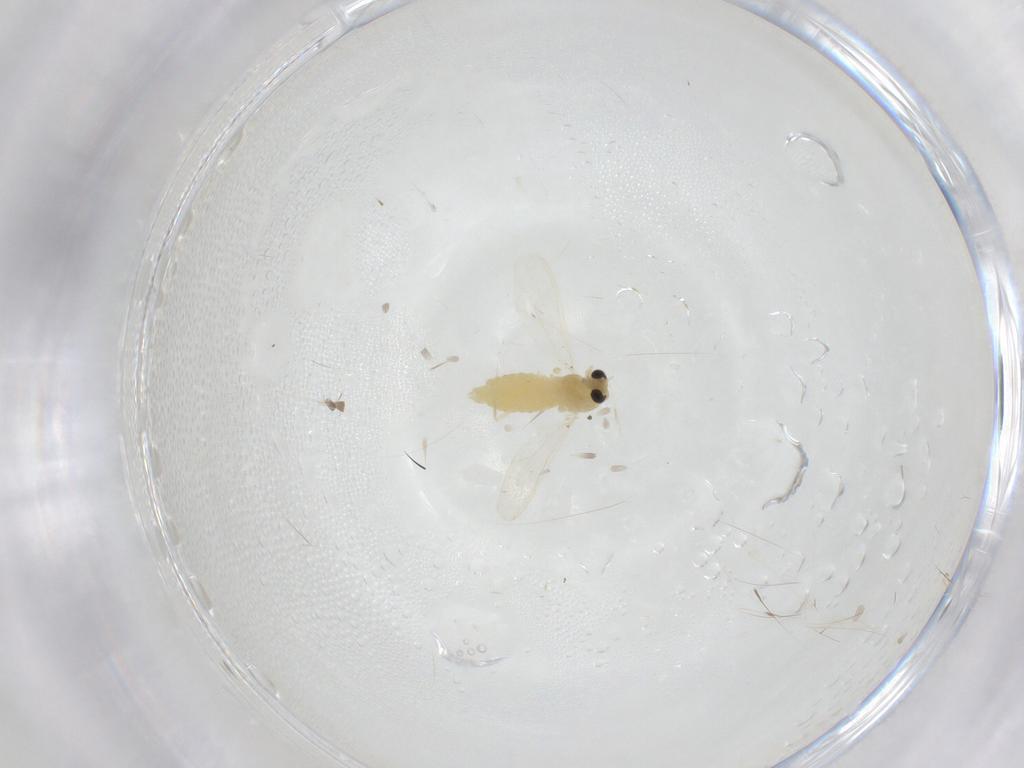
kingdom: Animalia
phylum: Arthropoda
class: Insecta
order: Diptera
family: Chironomidae
